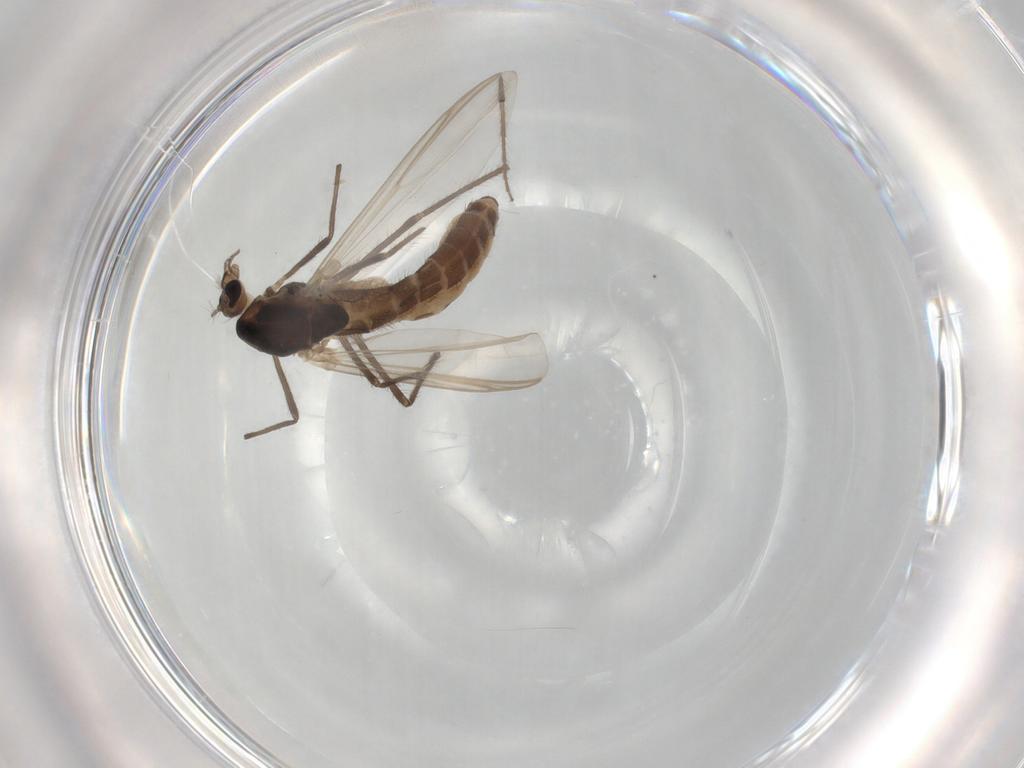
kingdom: Animalia
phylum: Arthropoda
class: Insecta
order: Diptera
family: Chironomidae
